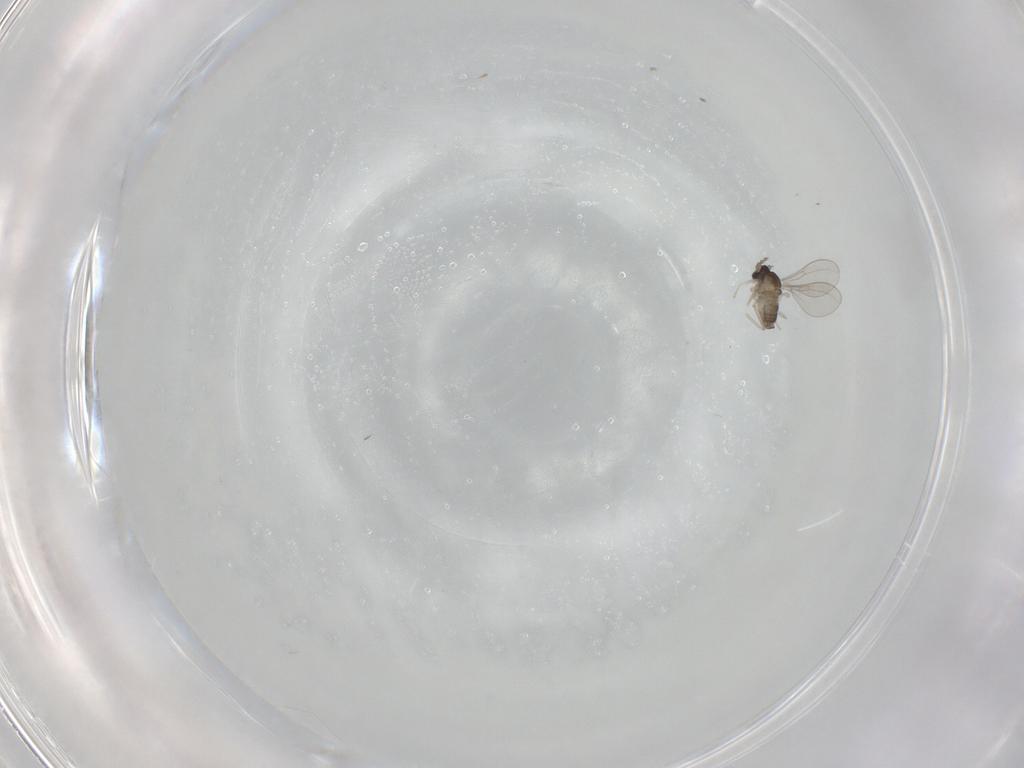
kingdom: Animalia
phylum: Arthropoda
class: Insecta
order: Diptera
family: Cecidomyiidae
